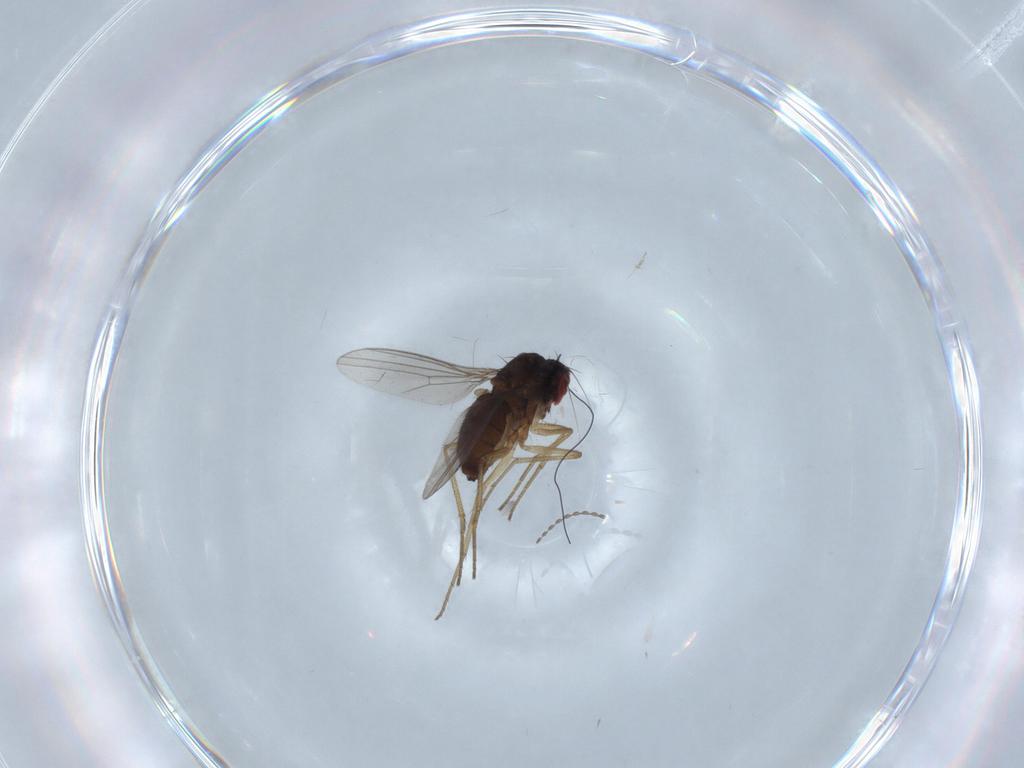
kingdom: Animalia
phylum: Arthropoda
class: Insecta
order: Diptera
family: Dolichopodidae
